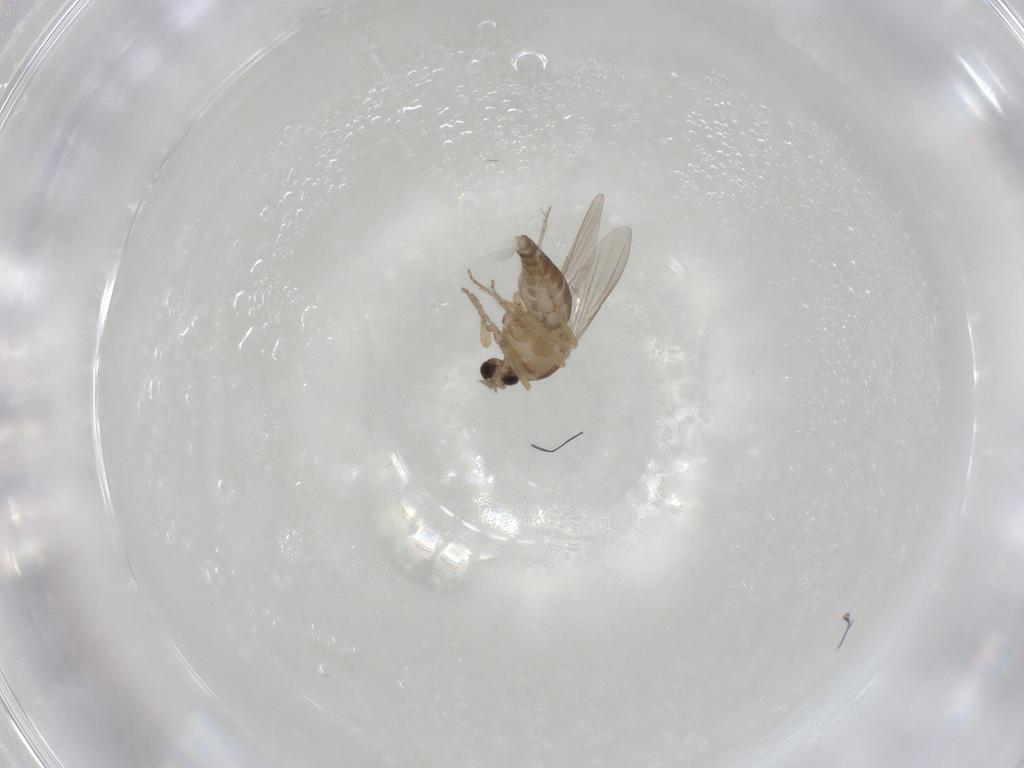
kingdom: Animalia
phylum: Arthropoda
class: Insecta
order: Diptera
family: Ceratopogonidae
